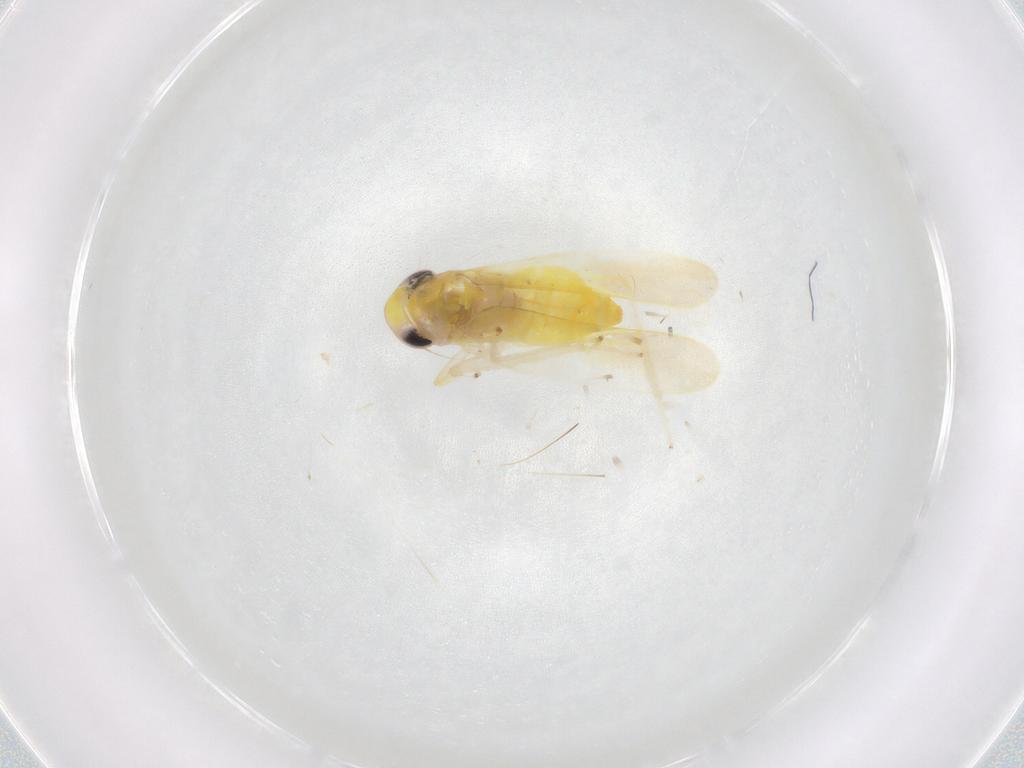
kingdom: Animalia
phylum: Arthropoda
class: Insecta
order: Hemiptera
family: Cicadellidae
